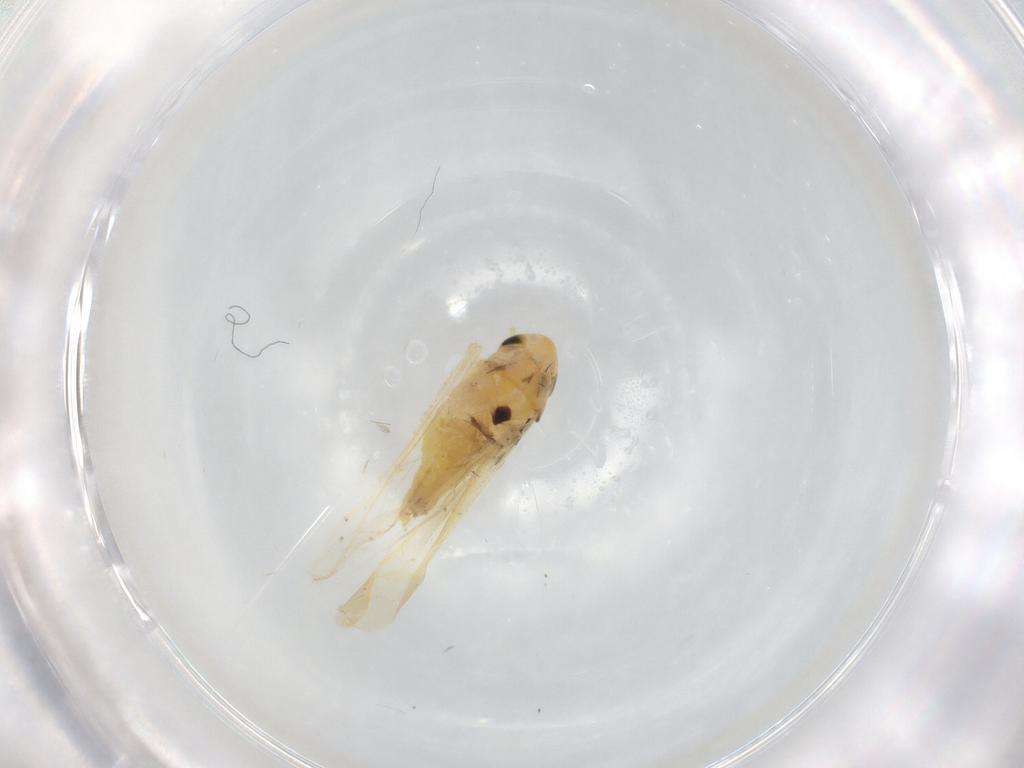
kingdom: Animalia
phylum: Arthropoda
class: Insecta
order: Hemiptera
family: Cicadellidae
